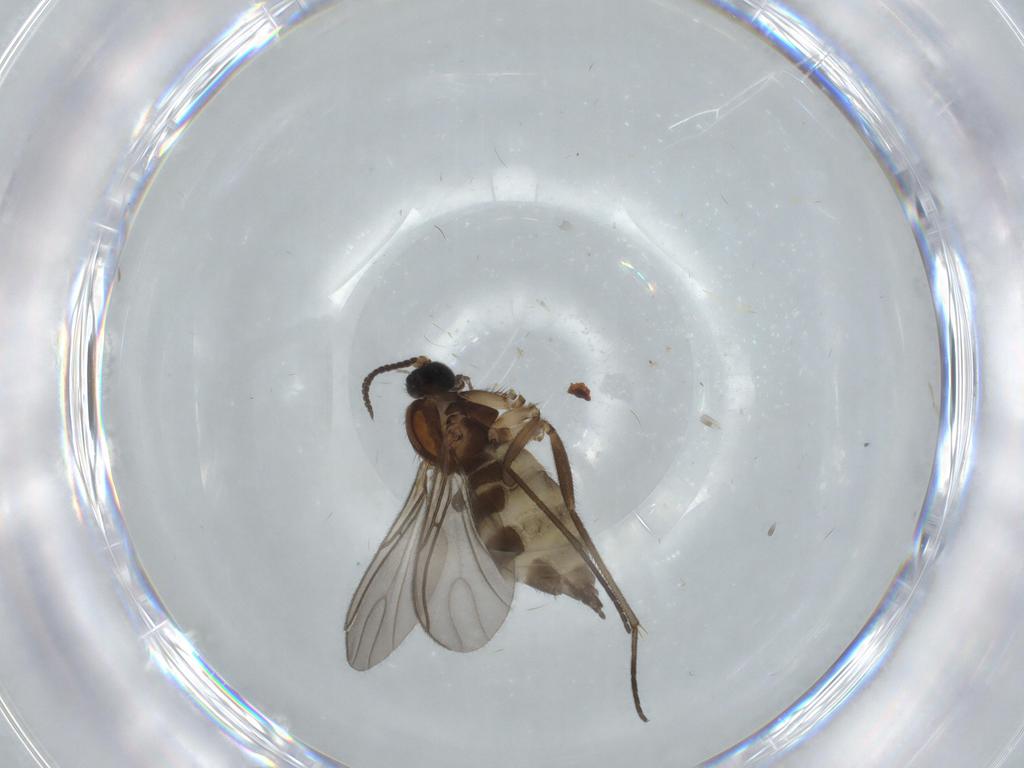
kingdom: Animalia
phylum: Arthropoda
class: Insecta
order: Diptera
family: Sciaridae
